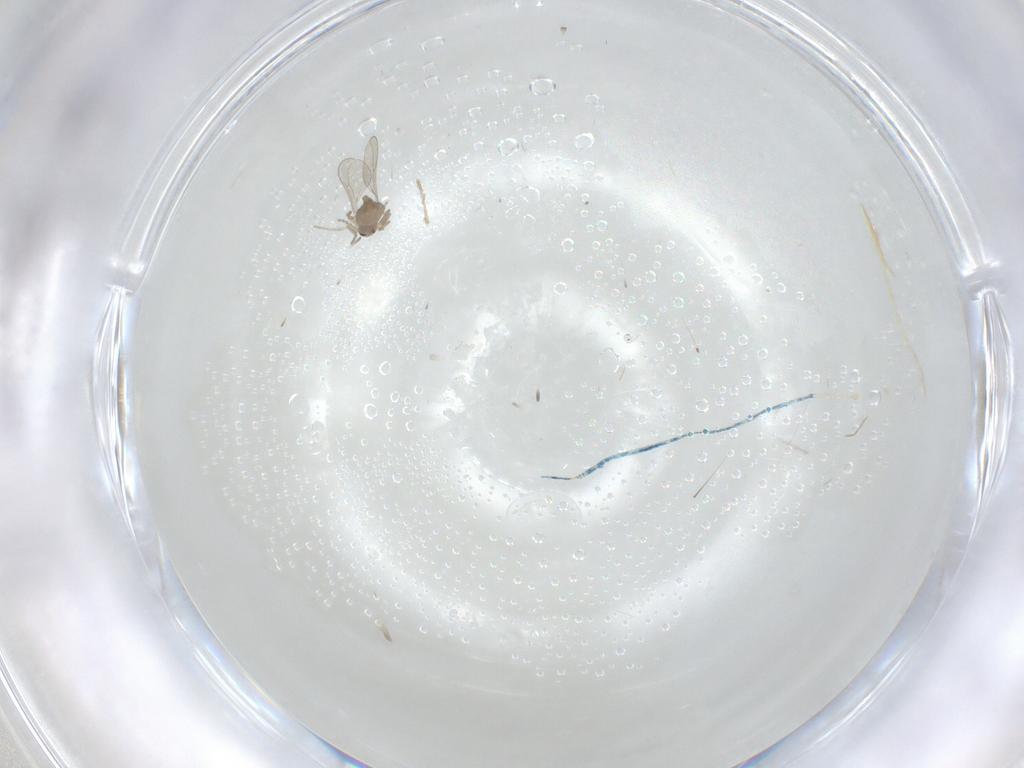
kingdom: Animalia
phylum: Arthropoda
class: Insecta
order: Diptera
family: Cecidomyiidae
